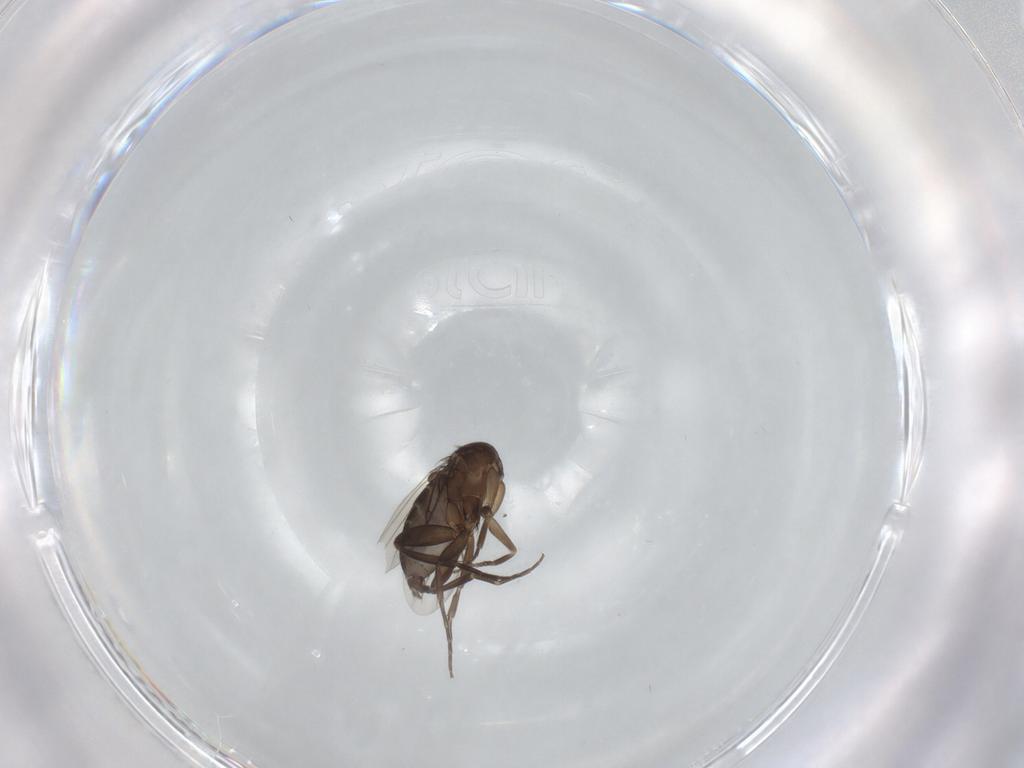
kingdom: Animalia
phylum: Arthropoda
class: Insecta
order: Diptera
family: Phoridae
